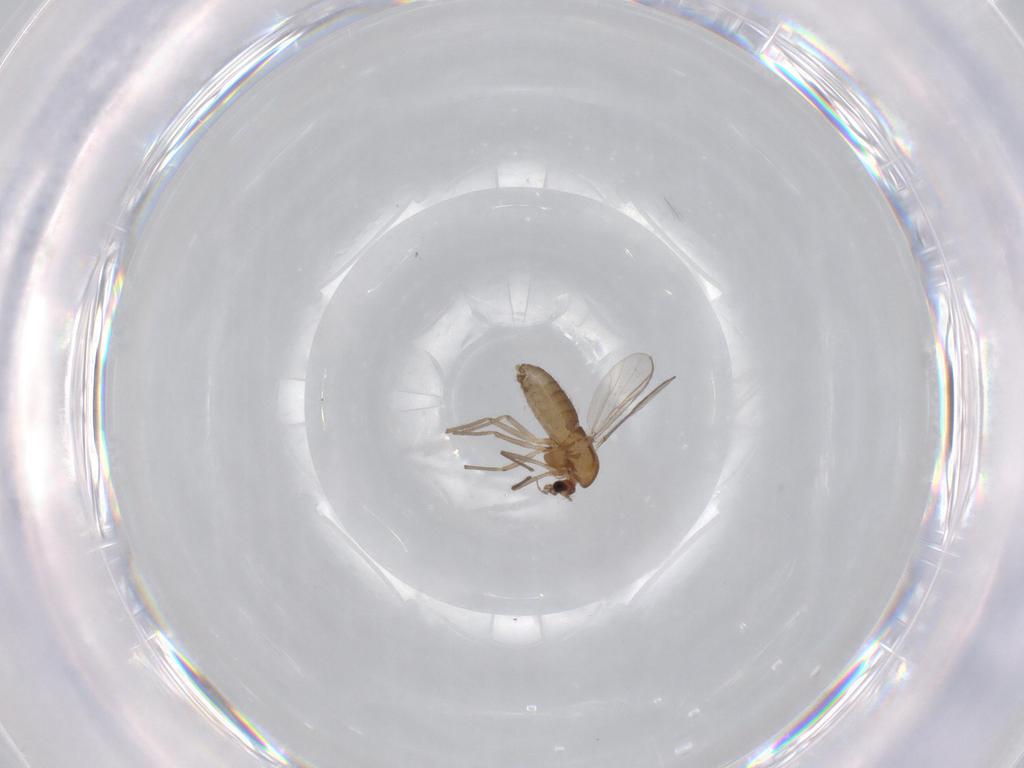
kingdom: Animalia
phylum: Arthropoda
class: Insecta
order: Diptera
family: Chironomidae
